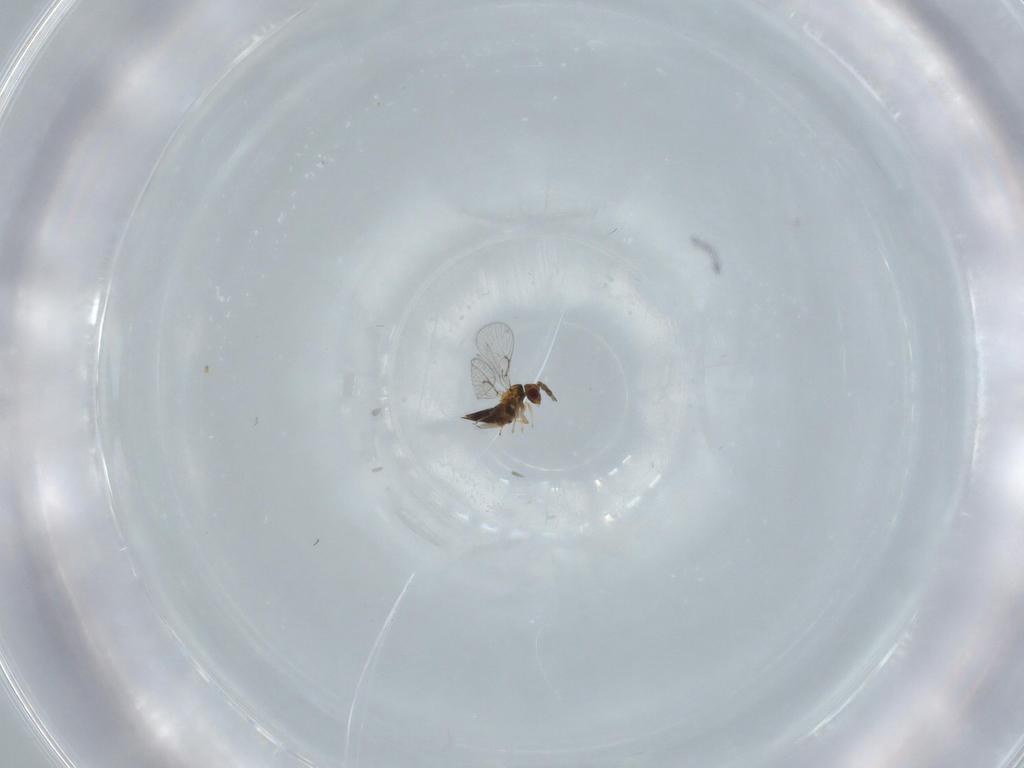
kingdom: Animalia
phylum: Arthropoda
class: Insecta
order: Hymenoptera
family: Trichogrammatidae
